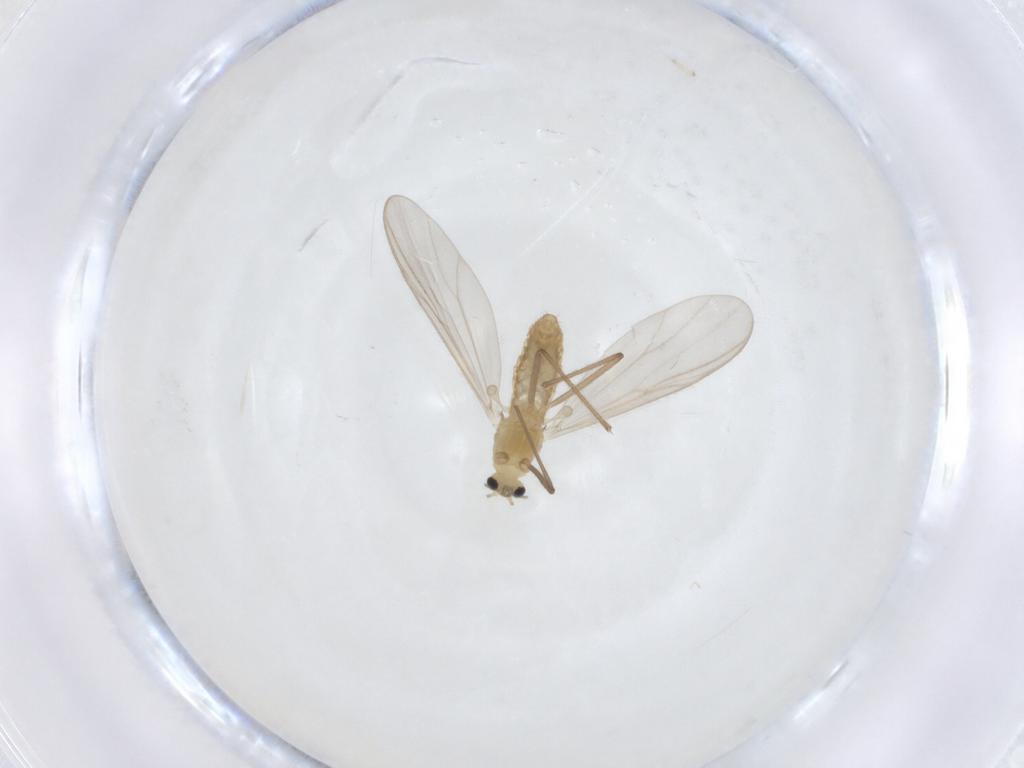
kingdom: Animalia
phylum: Arthropoda
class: Insecta
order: Diptera
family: Chironomidae
